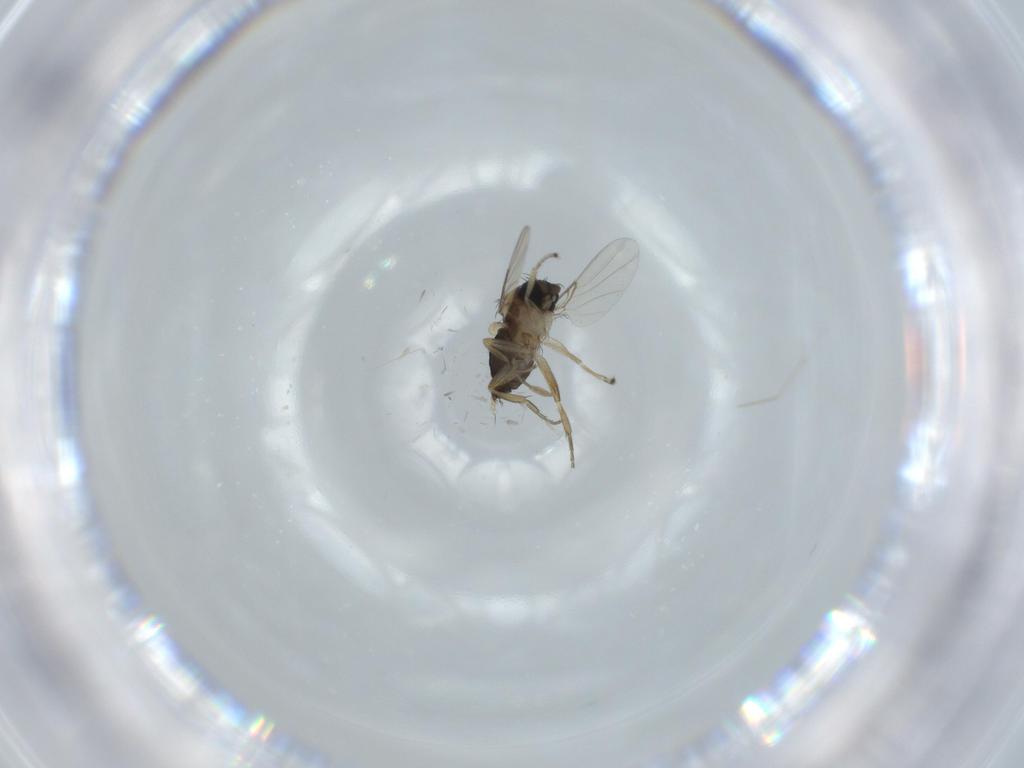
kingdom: Animalia
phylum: Arthropoda
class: Insecta
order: Diptera
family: Phoridae
